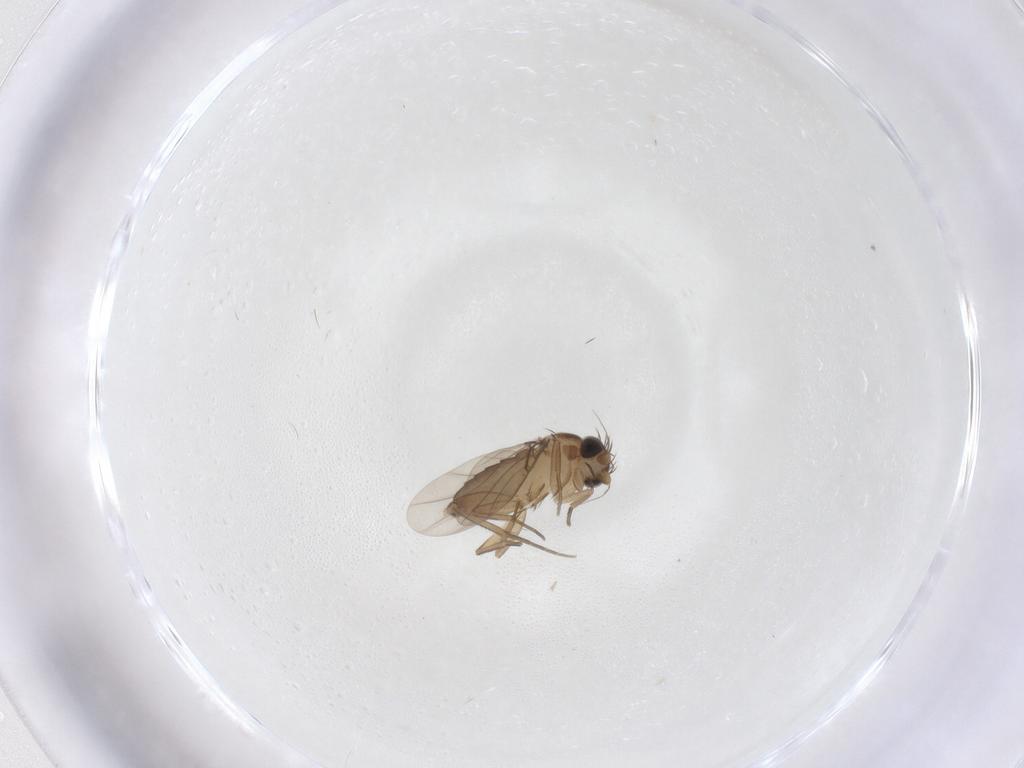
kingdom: Animalia
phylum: Arthropoda
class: Insecta
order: Diptera
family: Phoridae
